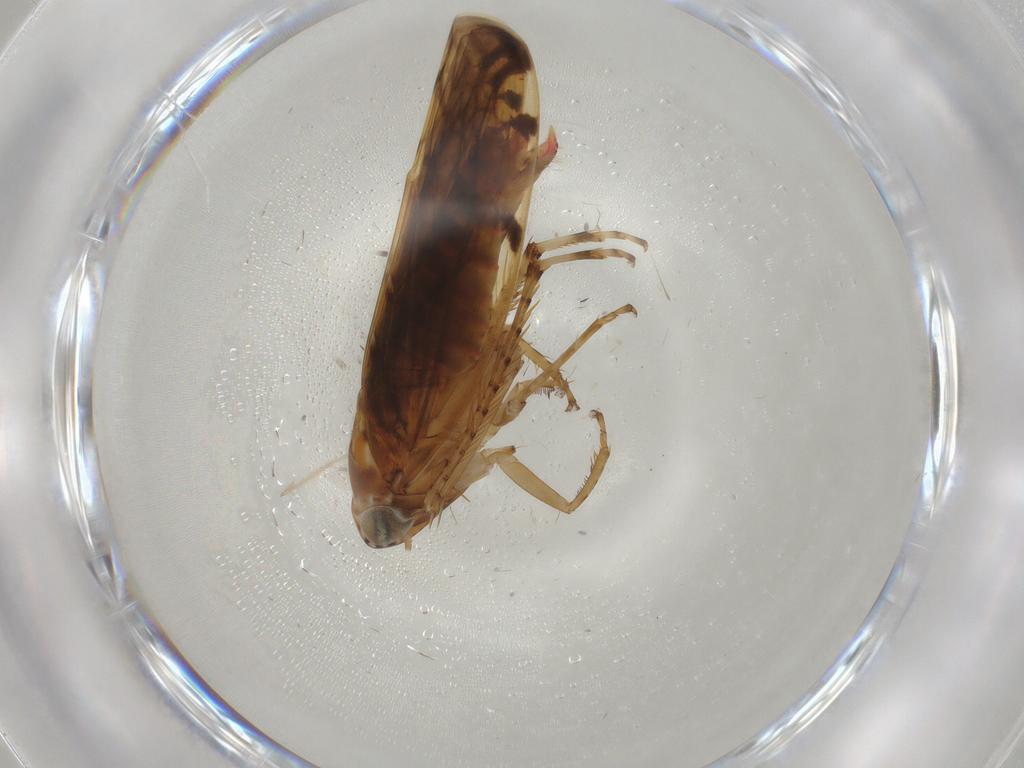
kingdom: Animalia
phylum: Arthropoda
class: Insecta
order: Hemiptera
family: Cicadellidae
